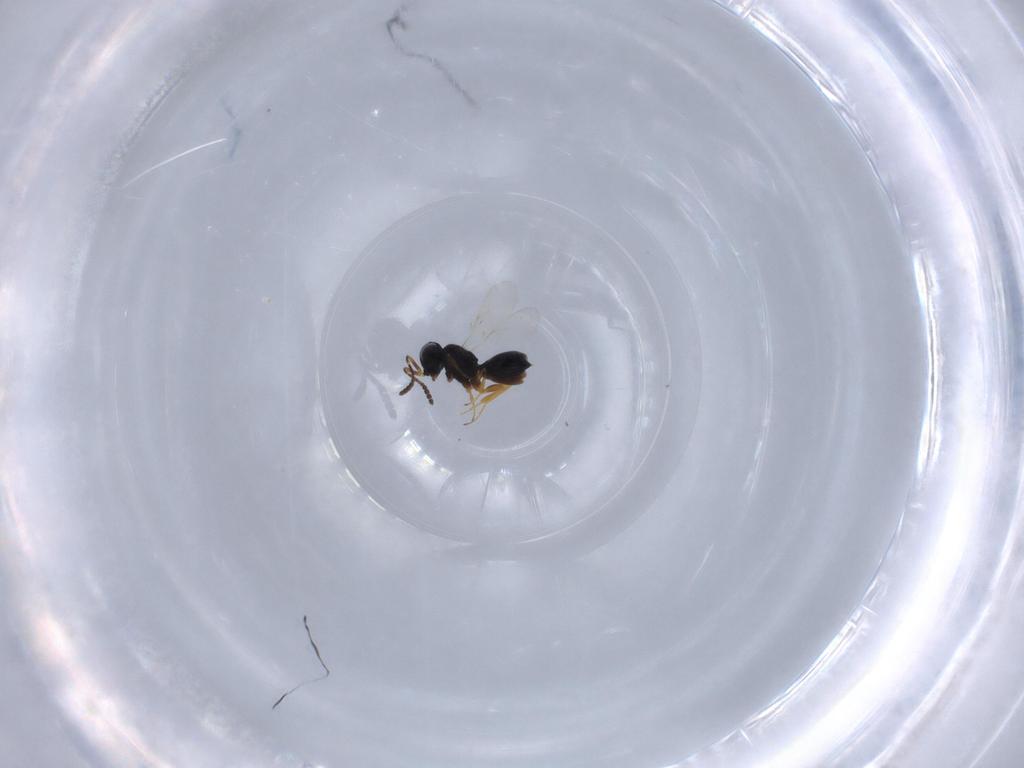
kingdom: Animalia
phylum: Arthropoda
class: Insecta
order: Hymenoptera
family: Scelionidae
